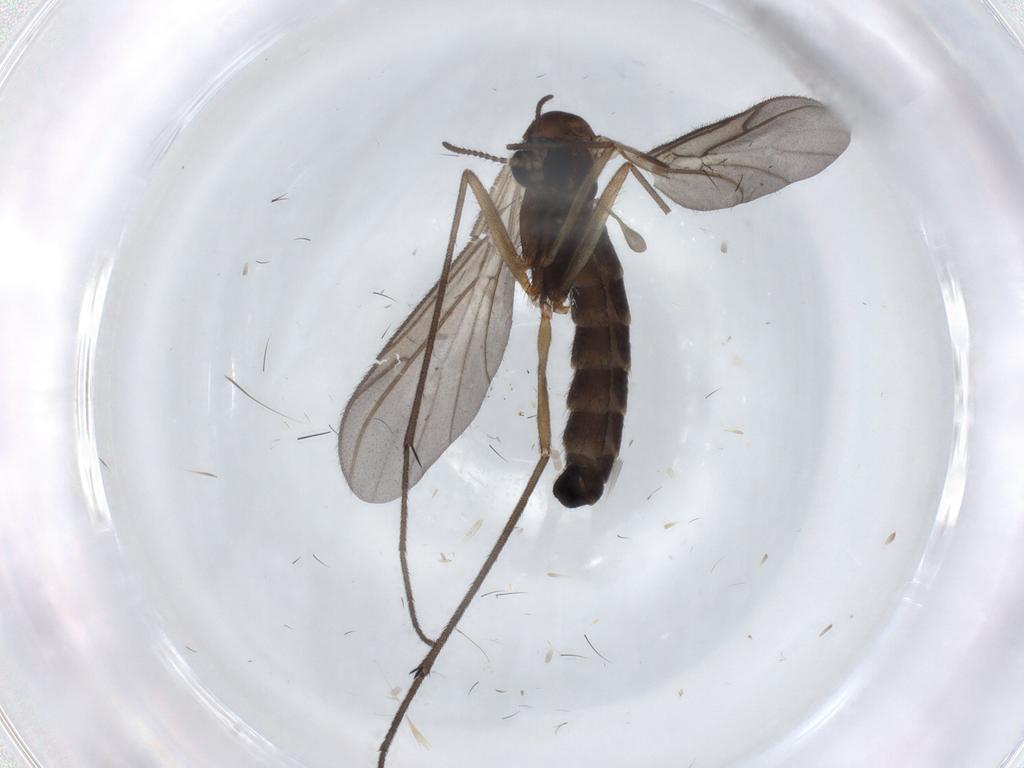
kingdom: Animalia
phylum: Arthropoda
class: Insecta
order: Diptera
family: Sciaridae
